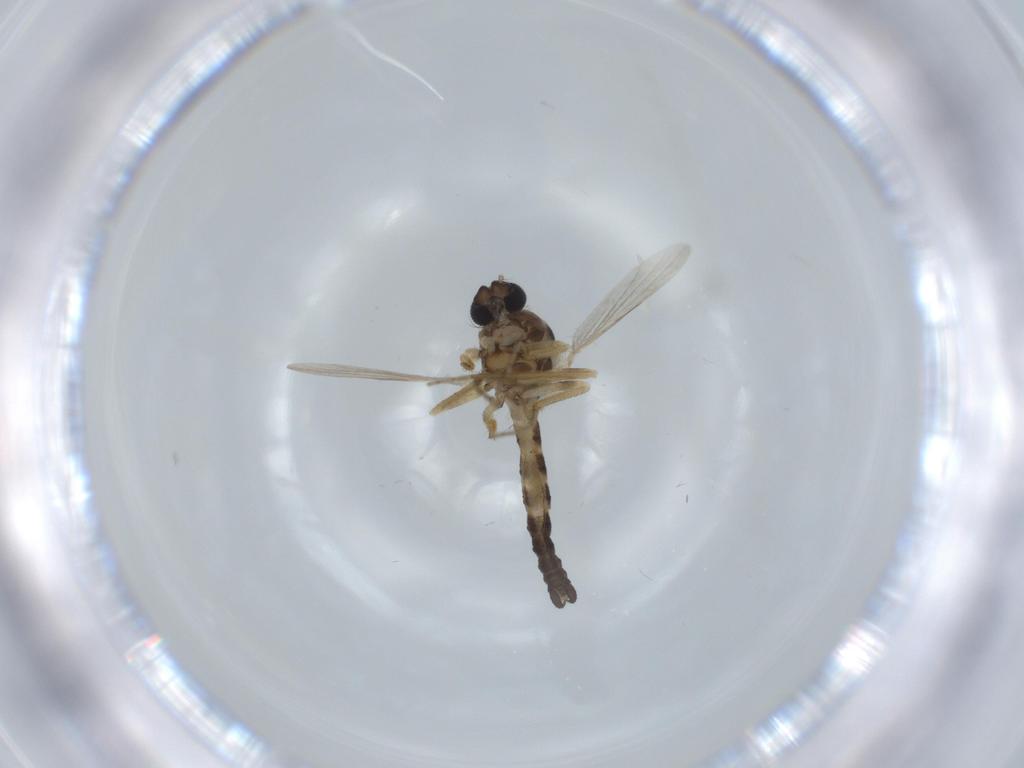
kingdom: Animalia
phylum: Arthropoda
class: Insecta
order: Diptera
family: Ceratopogonidae
